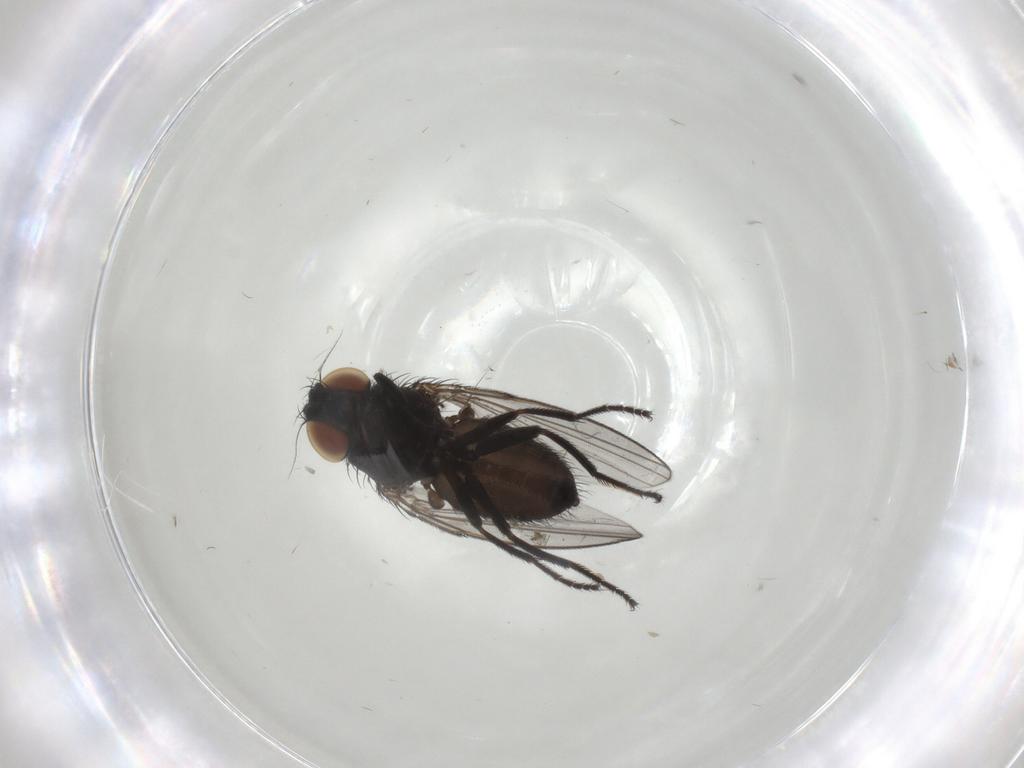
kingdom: Animalia
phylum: Arthropoda
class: Insecta
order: Diptera
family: Milichiidae
